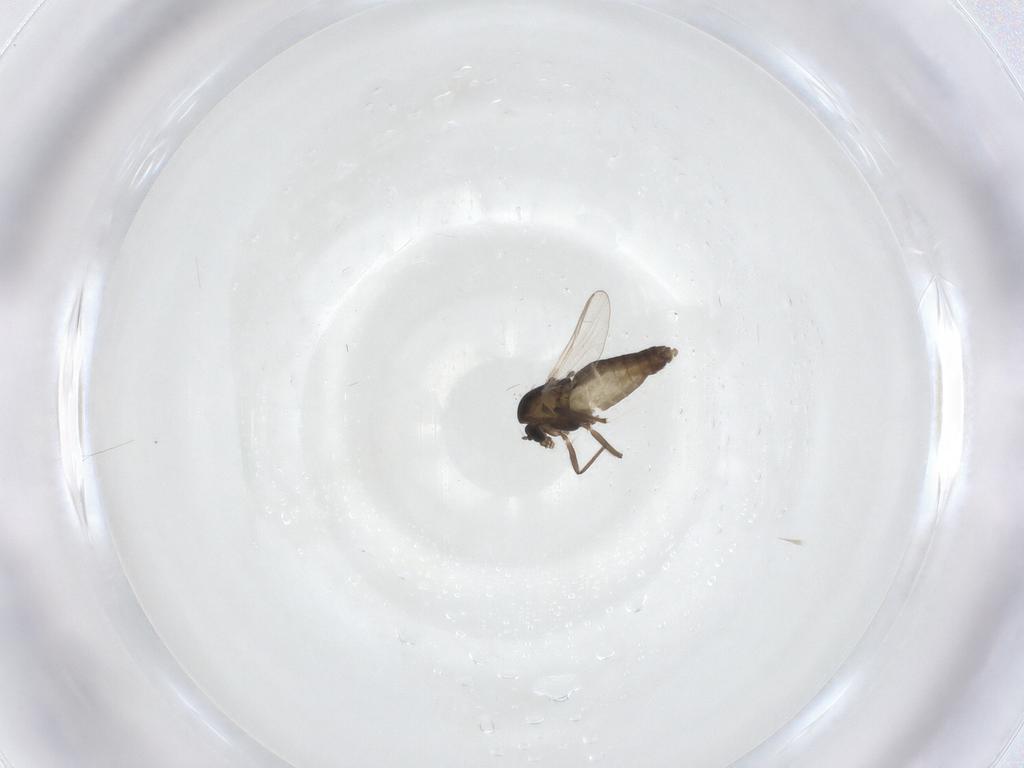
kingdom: Animalia
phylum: Arthropoda
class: Insecta
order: Diptera
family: Chironomidae
